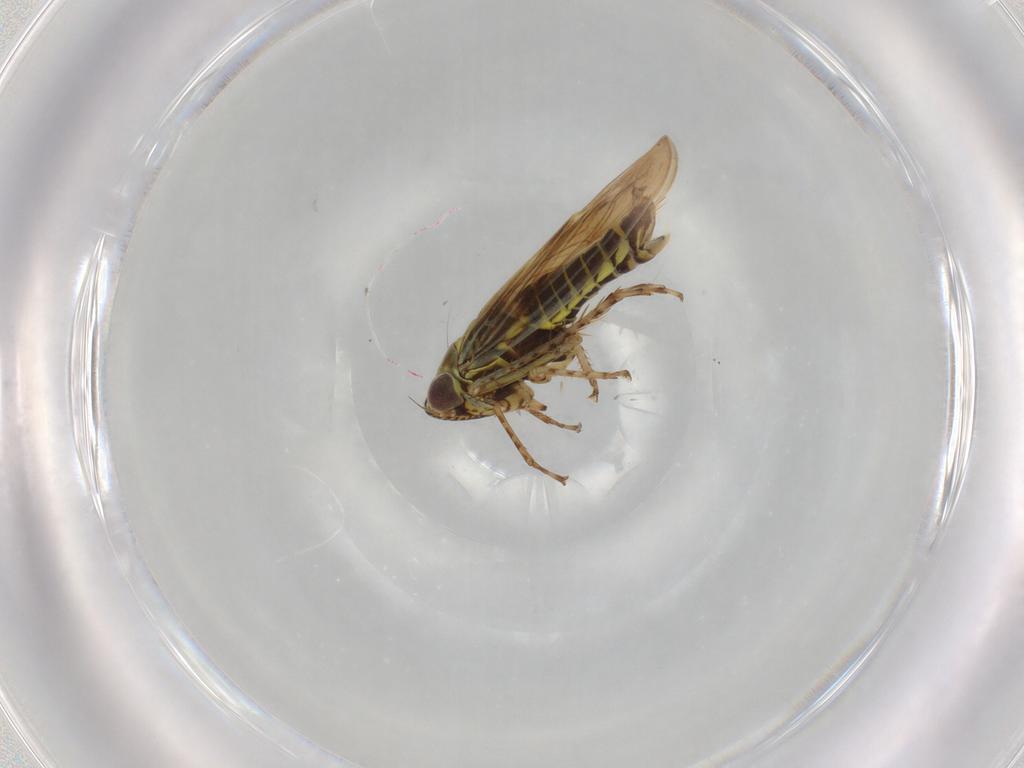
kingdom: Animalia
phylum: Arthropoda
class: Insecta
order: Hemiptera
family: Cicadellidae
